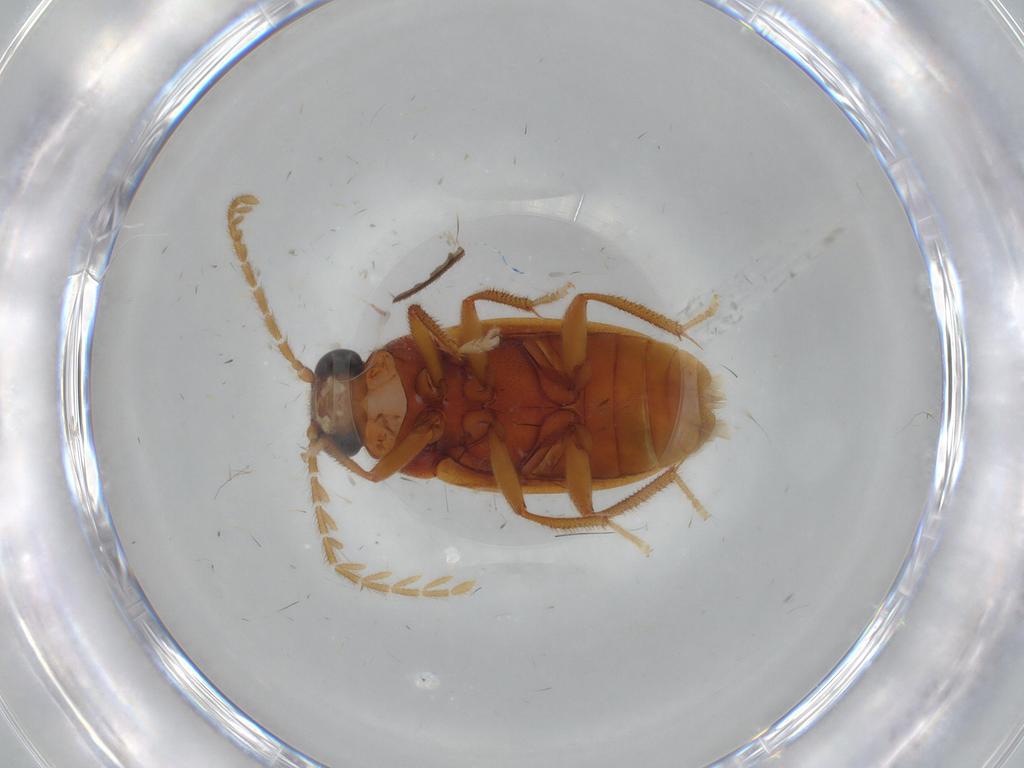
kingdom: Animalia
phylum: Arthropoda
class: Insecta
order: Coleoptera
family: Ptilodactylidae
